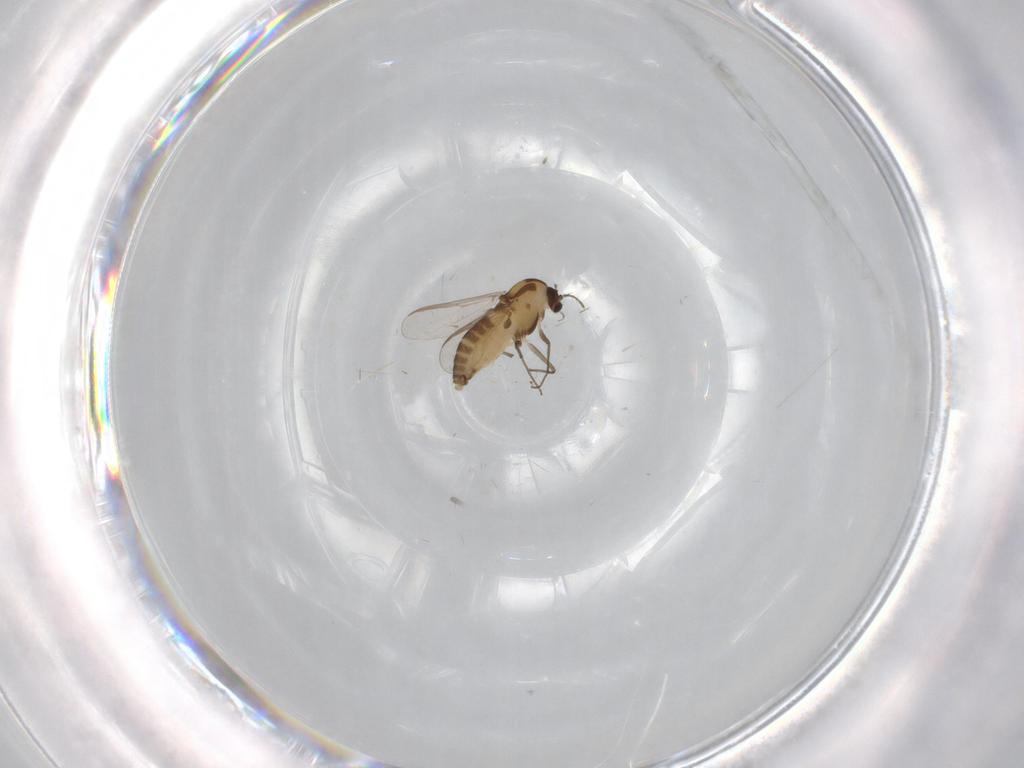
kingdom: Animalia
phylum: Arthropoda
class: Insecta
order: Diptera
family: Chironomidae
